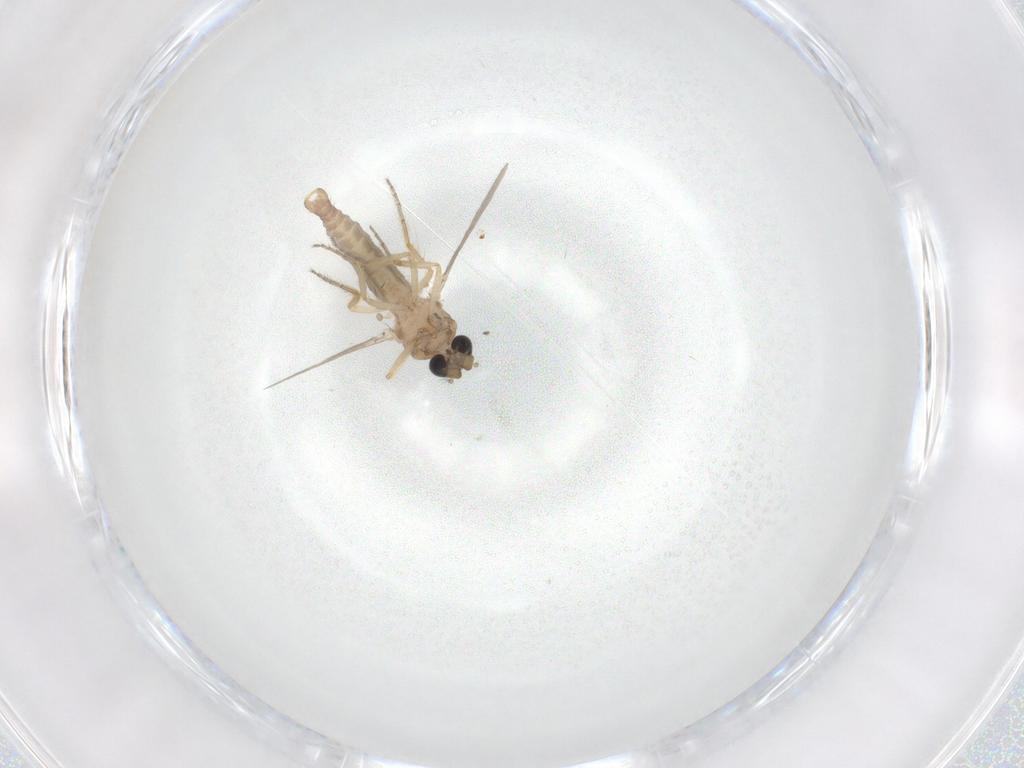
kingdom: Animalia
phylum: Arthropoda
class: Insecta
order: Diptera
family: Ceratopogonidae
